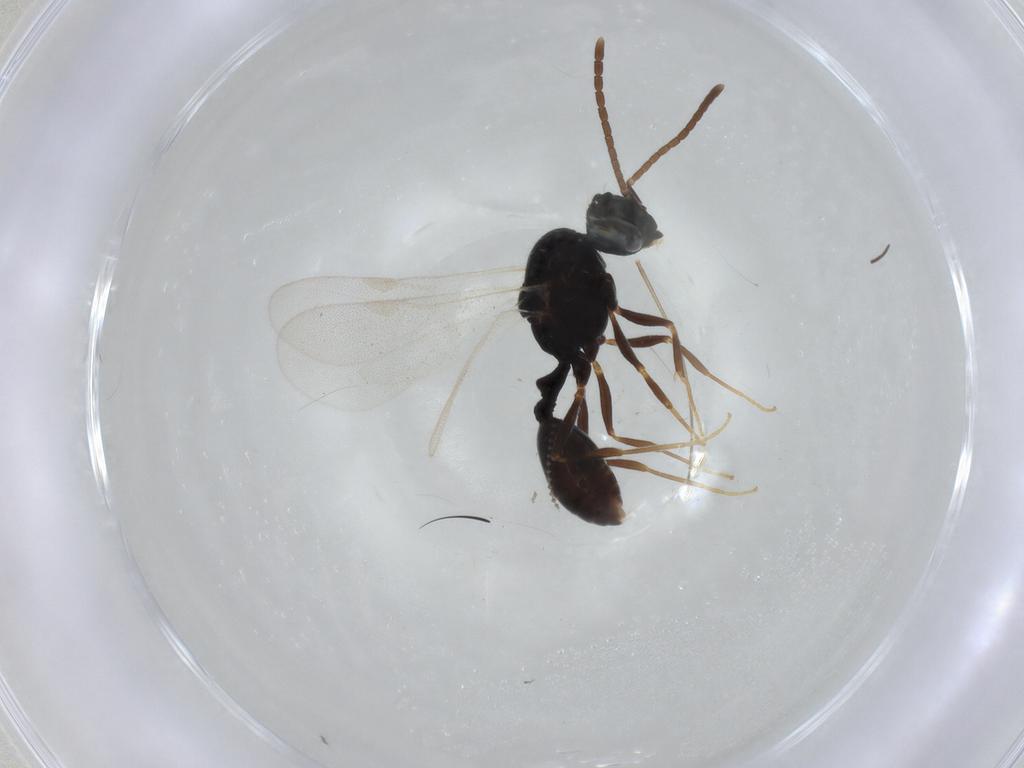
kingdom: Animalia
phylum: Arthropoda
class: Insecta
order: Hymenoptera
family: Formicidae
